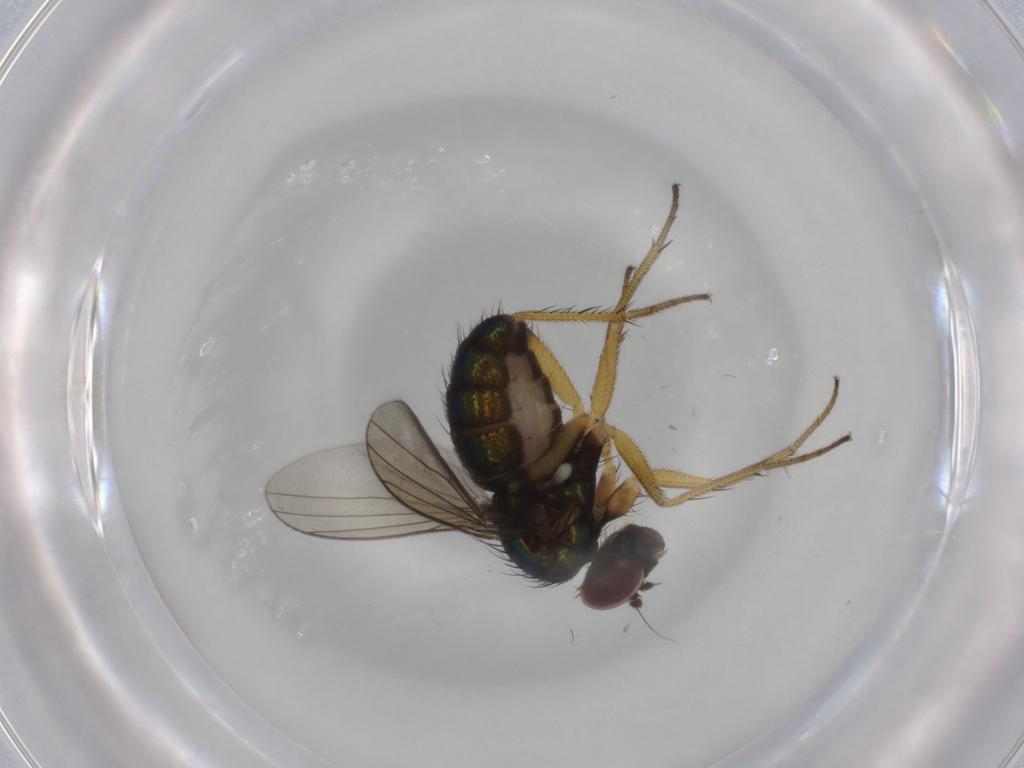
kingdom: Animalia
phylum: Arthropoda
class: Insecta
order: Diptera
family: Dolichopodidae
